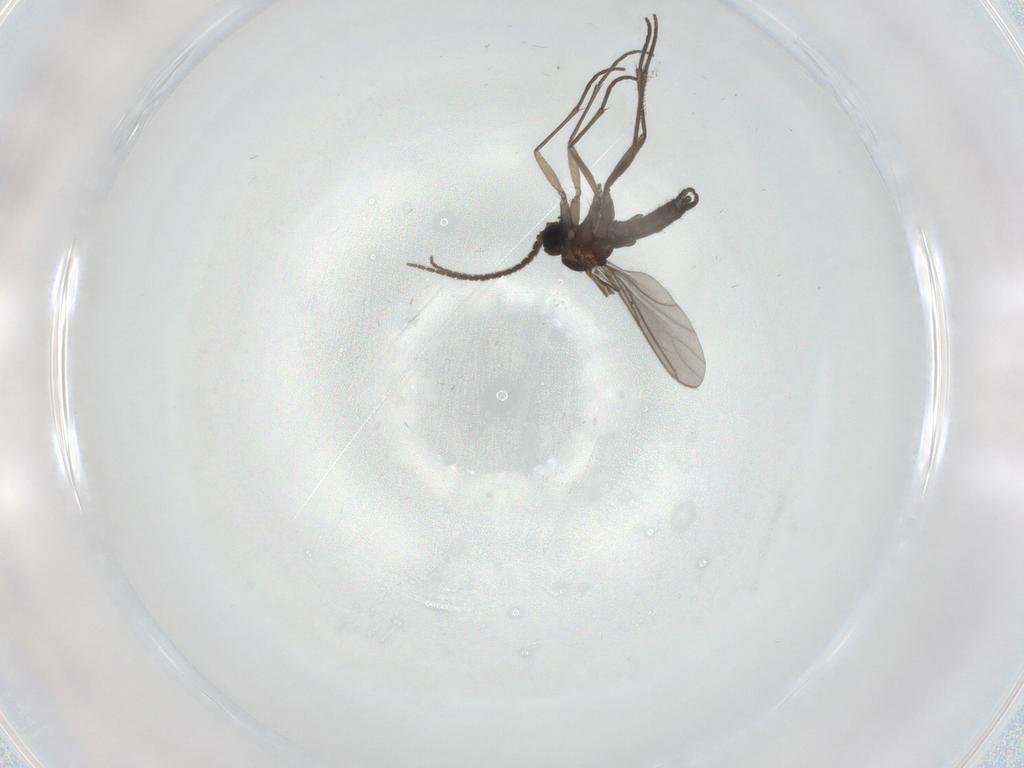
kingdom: Animalia
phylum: Arthropoda
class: Insecta
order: Diptera
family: Sciaridae
